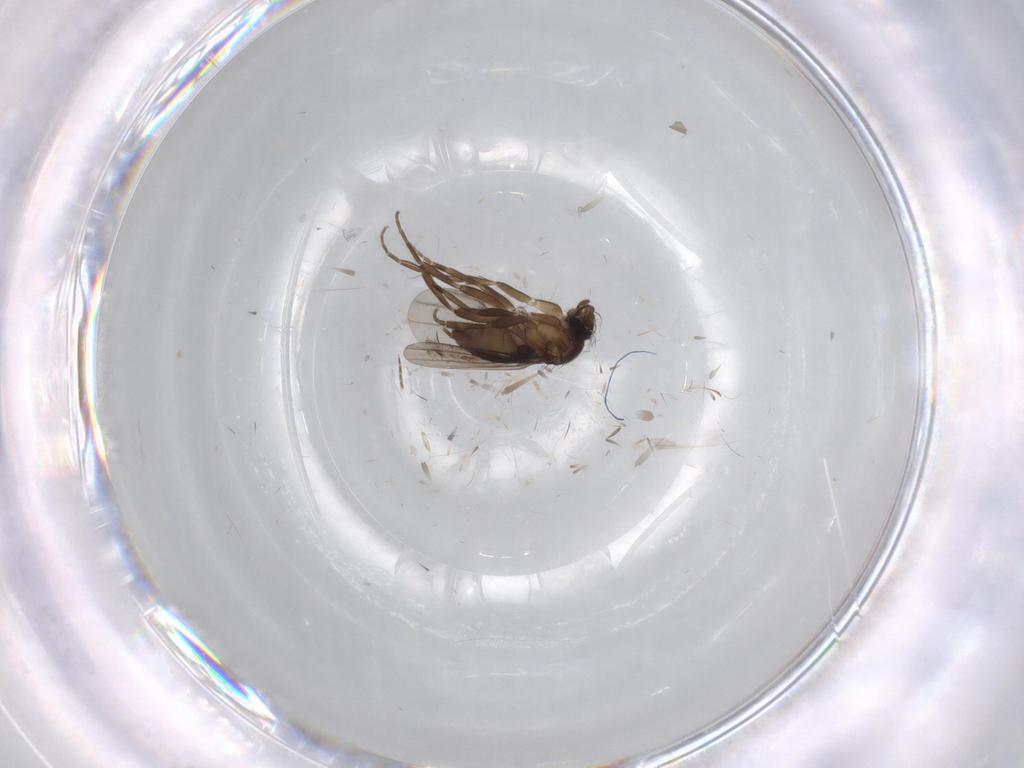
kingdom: Animalia
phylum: Arthropoda
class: Insecta
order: Diptera
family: Phoridae
